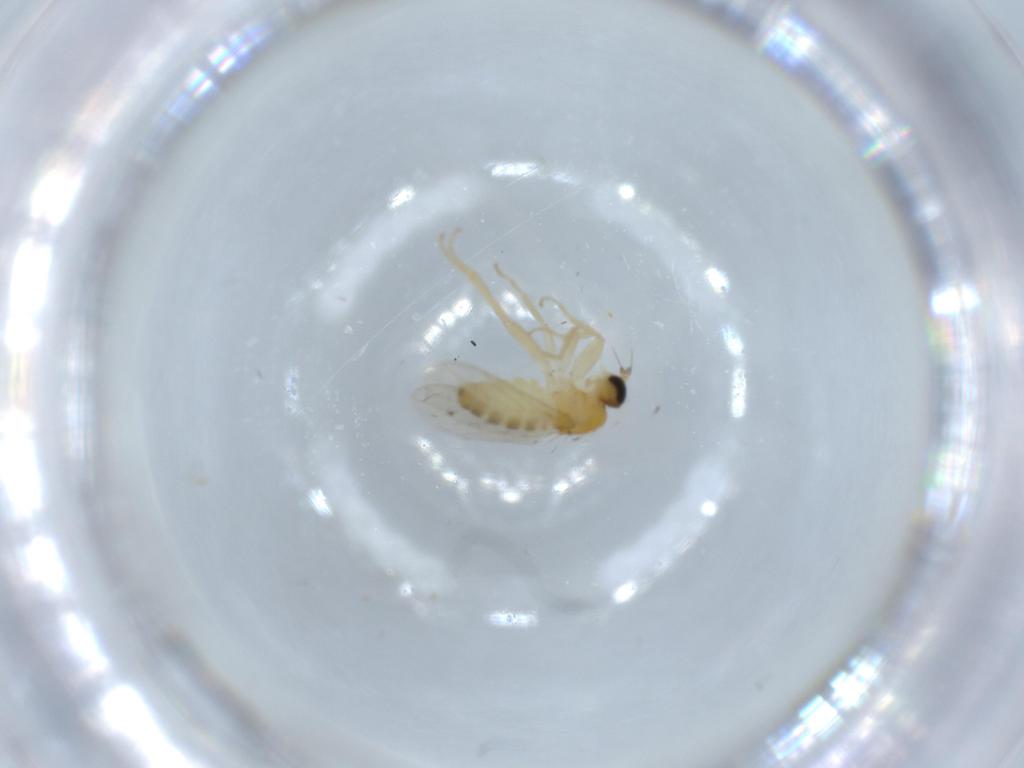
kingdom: Animalia
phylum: Arthropoda
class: Insecta
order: Diptera
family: Hybotidae
